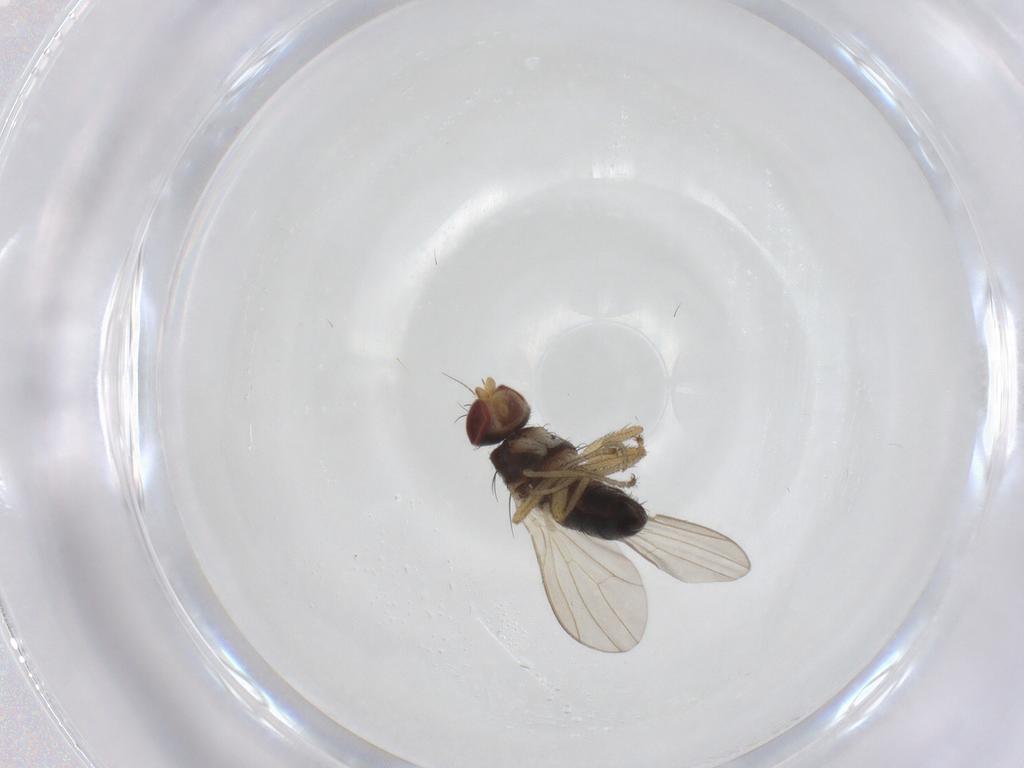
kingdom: Animalia
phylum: Arthropoda
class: Insecta
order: Diptera
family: Heleomyzidae
